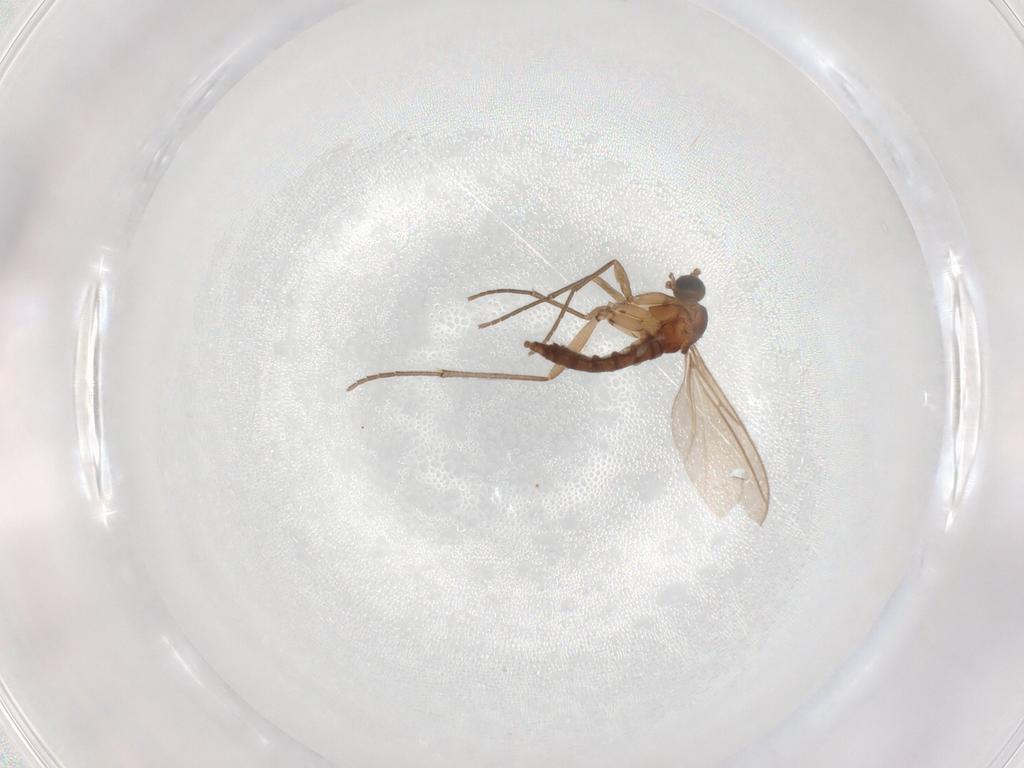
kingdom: Animalia
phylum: Arthropoda
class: Insecta
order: Diptera
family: Sciaridae
